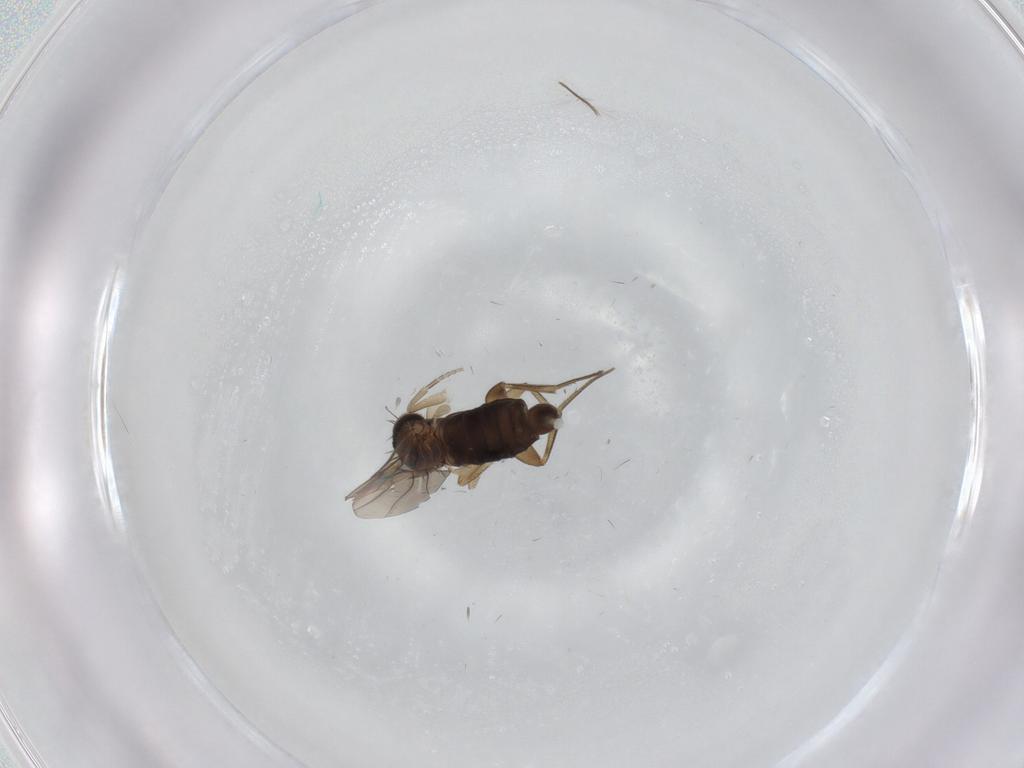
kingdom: Animalia
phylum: Arthropoda
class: Insecta
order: Diptera
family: Phoridae
